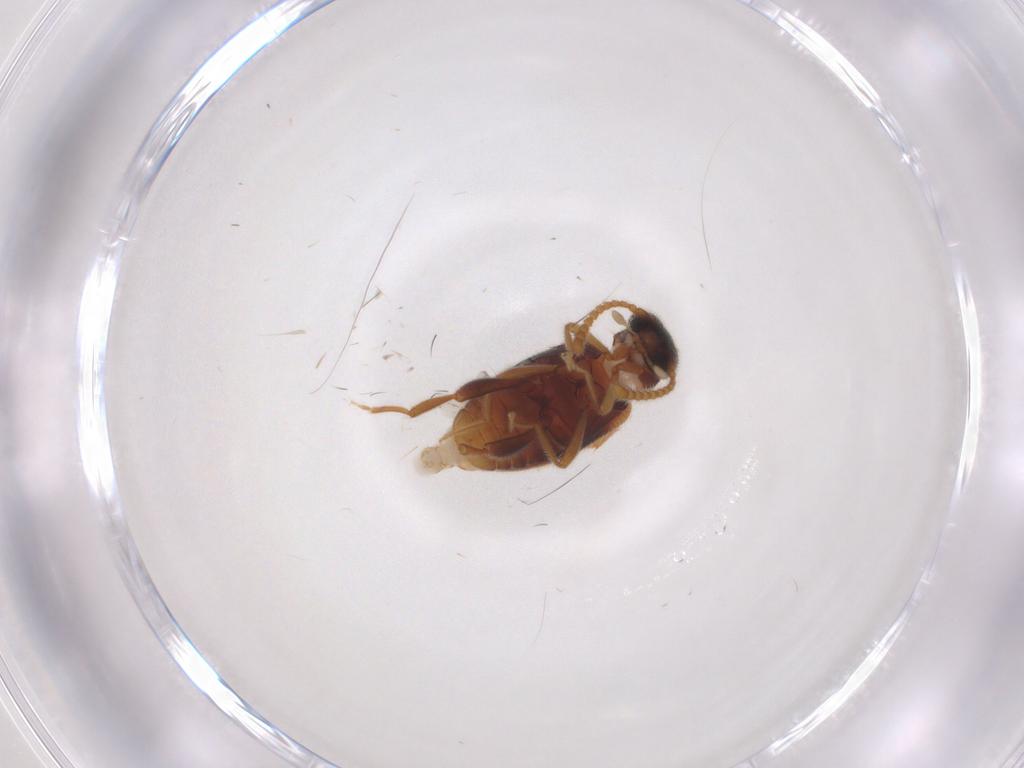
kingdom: Animalia
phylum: Arthropoda
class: Insecta
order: Coleoptera
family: Aderidae
